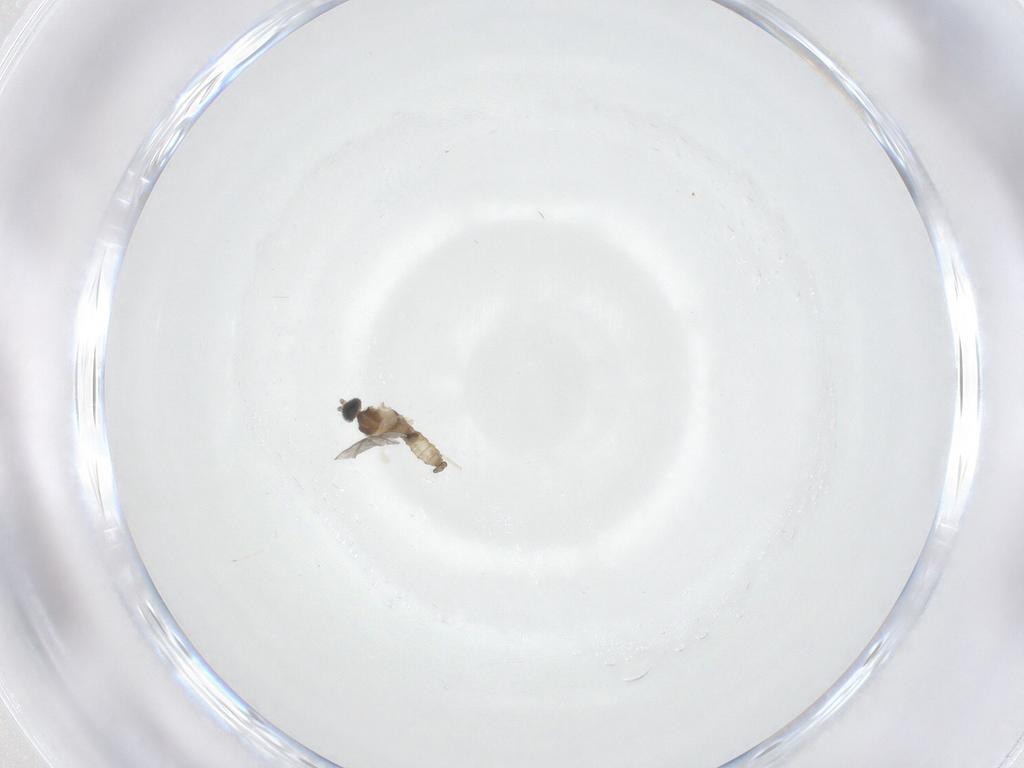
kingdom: Animalia
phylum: Arthropoda
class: Insecta
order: Diptera
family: Cecidomyiidae
